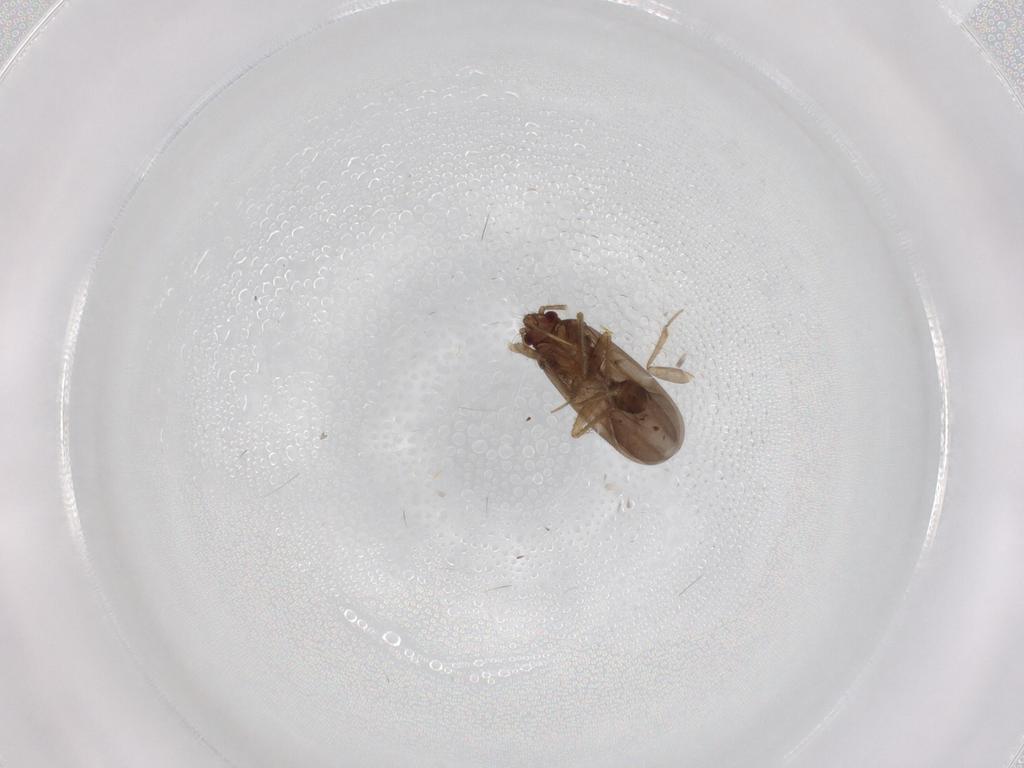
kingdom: Animalia
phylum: Arthropoda
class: Insecta
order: Hemiptera
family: Ceratocombidae
